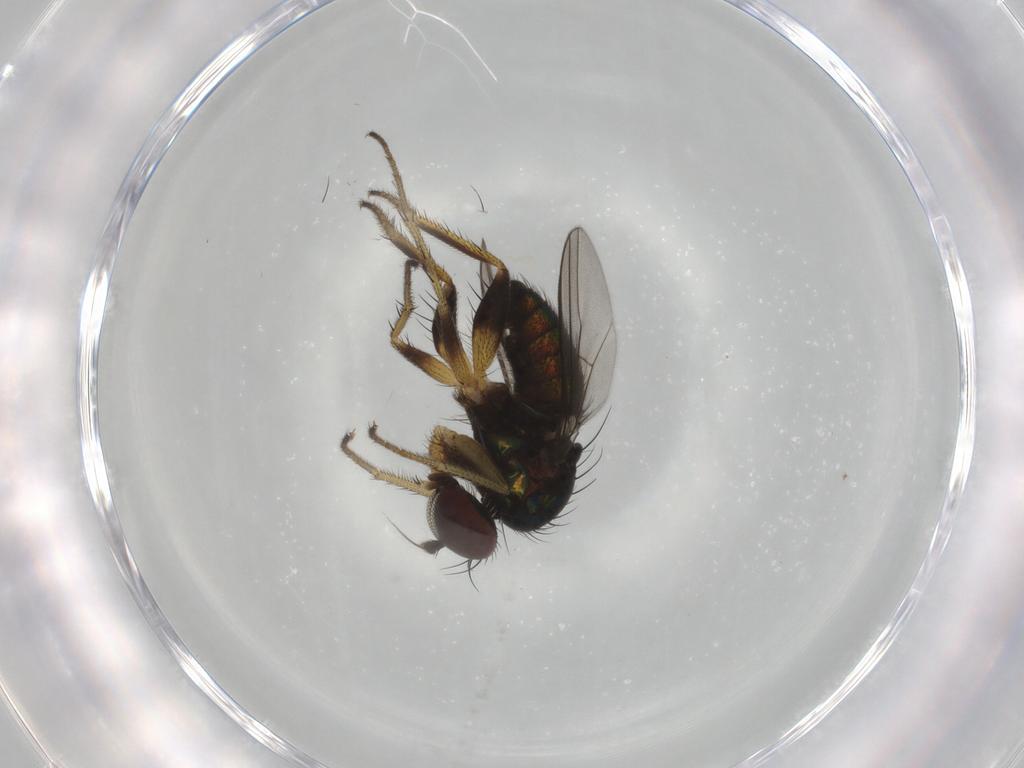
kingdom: Animalia
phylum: Arthropoda
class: Insecta
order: Diptera
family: Dolichopodidae
